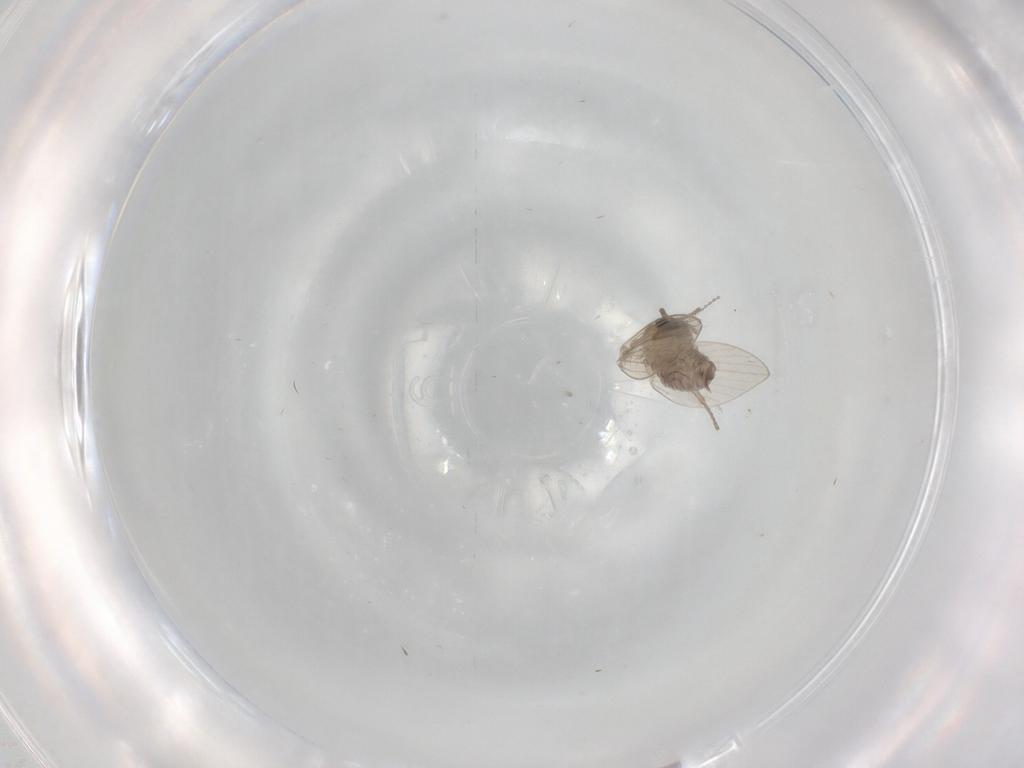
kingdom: Animalia
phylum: Arthropoda
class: Insecta
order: Diptera
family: Psychodidae
